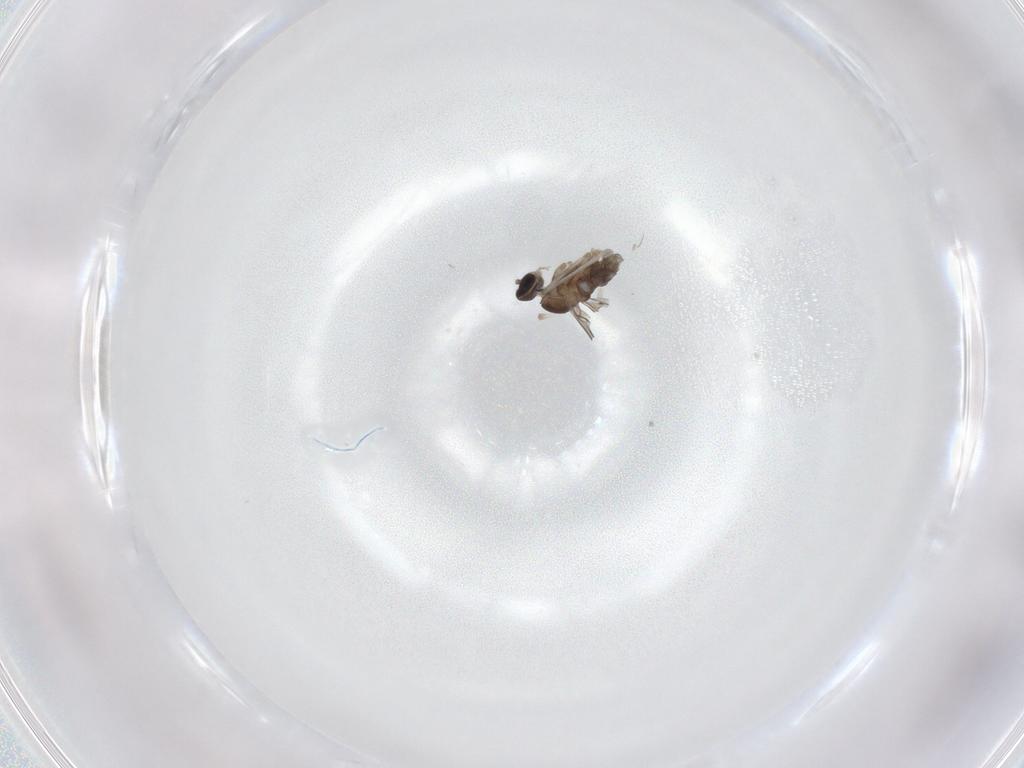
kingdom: Animalia
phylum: Arthropoda
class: Insecta
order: Diptera
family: Cecidomyiidae
